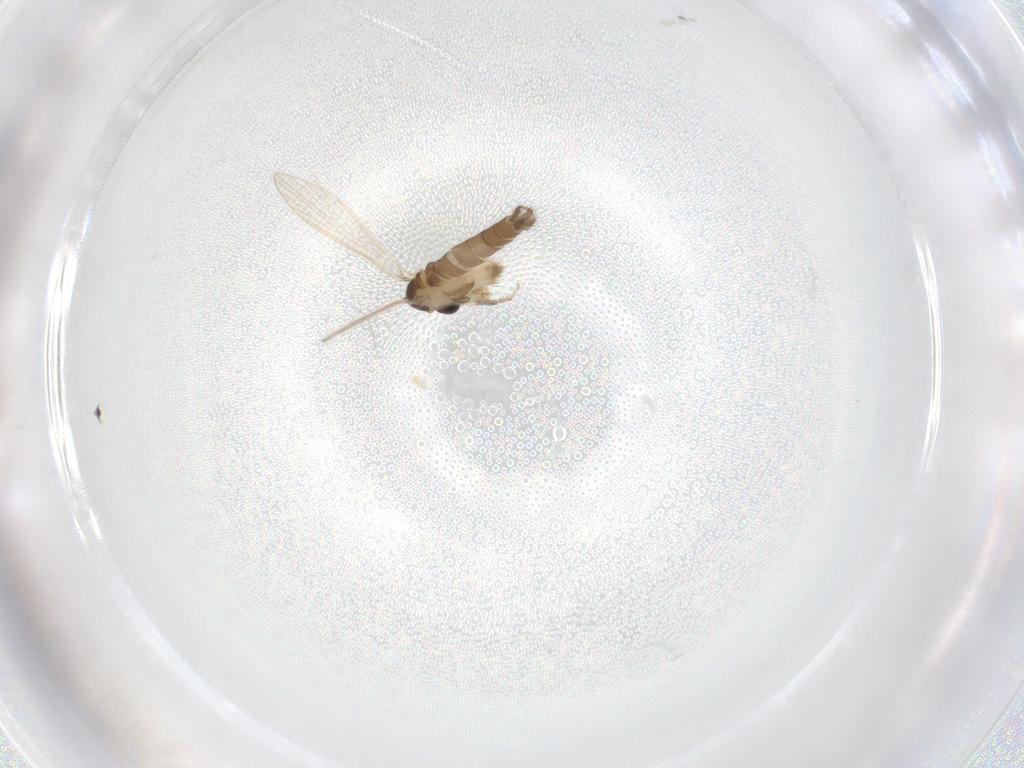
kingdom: Animalia
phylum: Arthropoda
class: Insecta
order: Diptera
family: Psychodidae
